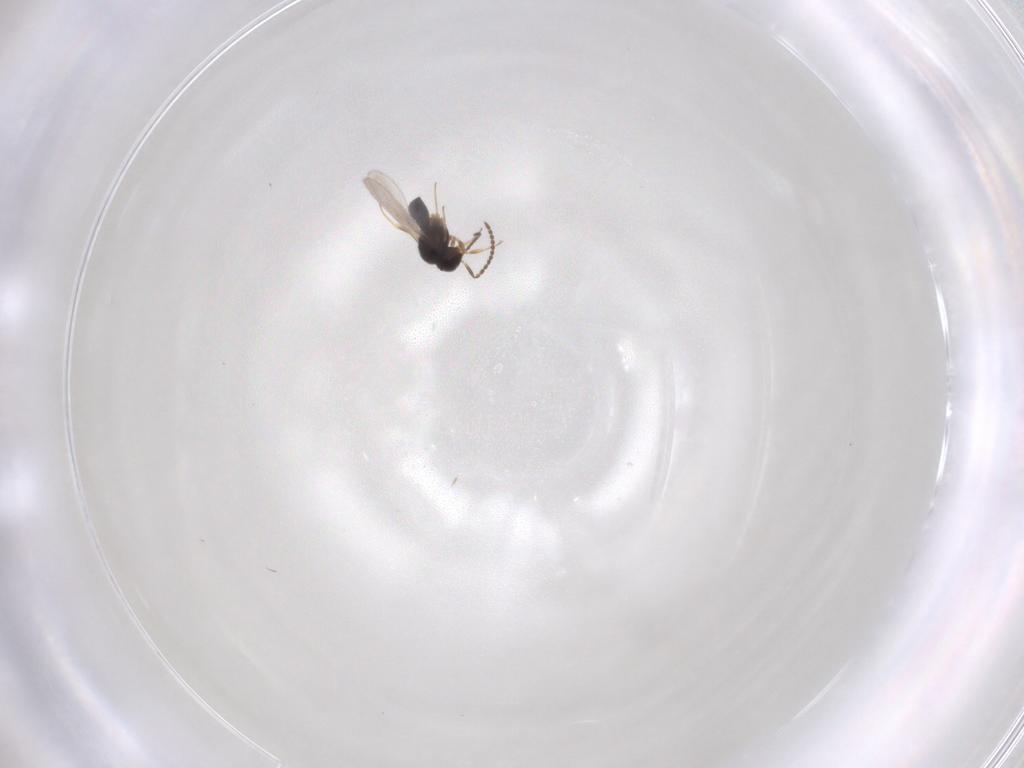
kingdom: Animalia
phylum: Arthropoda
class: Insecta
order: Hymenoptera
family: Scelionidae
